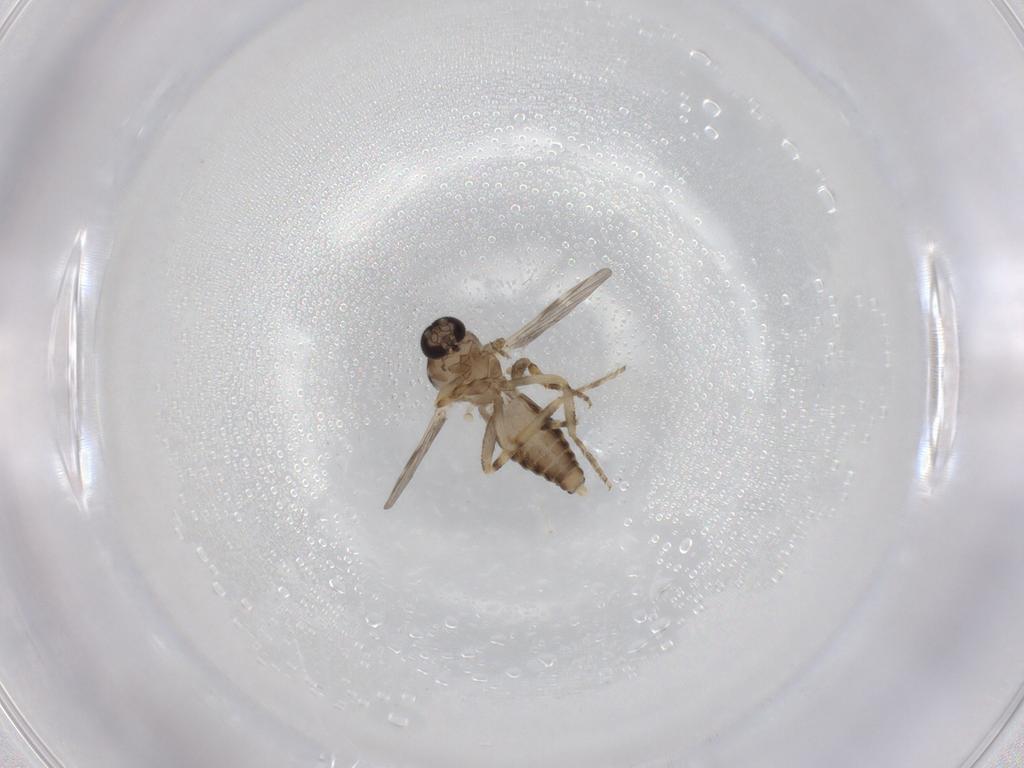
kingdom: Animalia
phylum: Arthropoda
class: Insecta
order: Diptera
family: Ceratopogonidae
